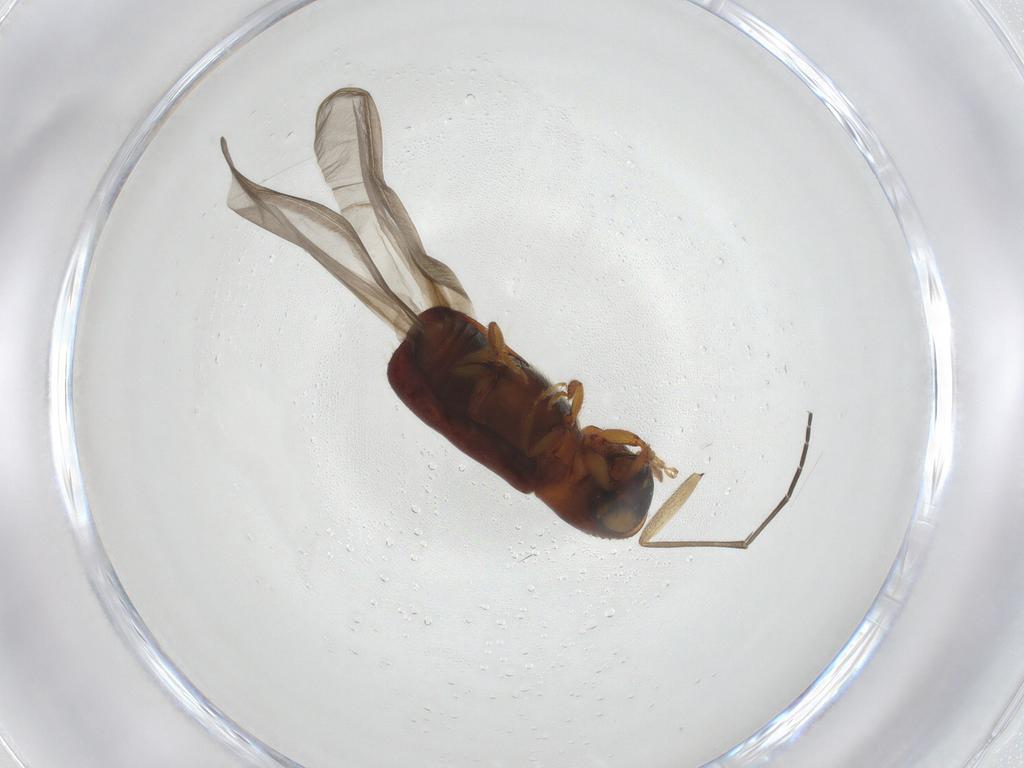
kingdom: Animalia
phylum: Arthropoda
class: Insecta
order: Coleoptera
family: Curculionidae
